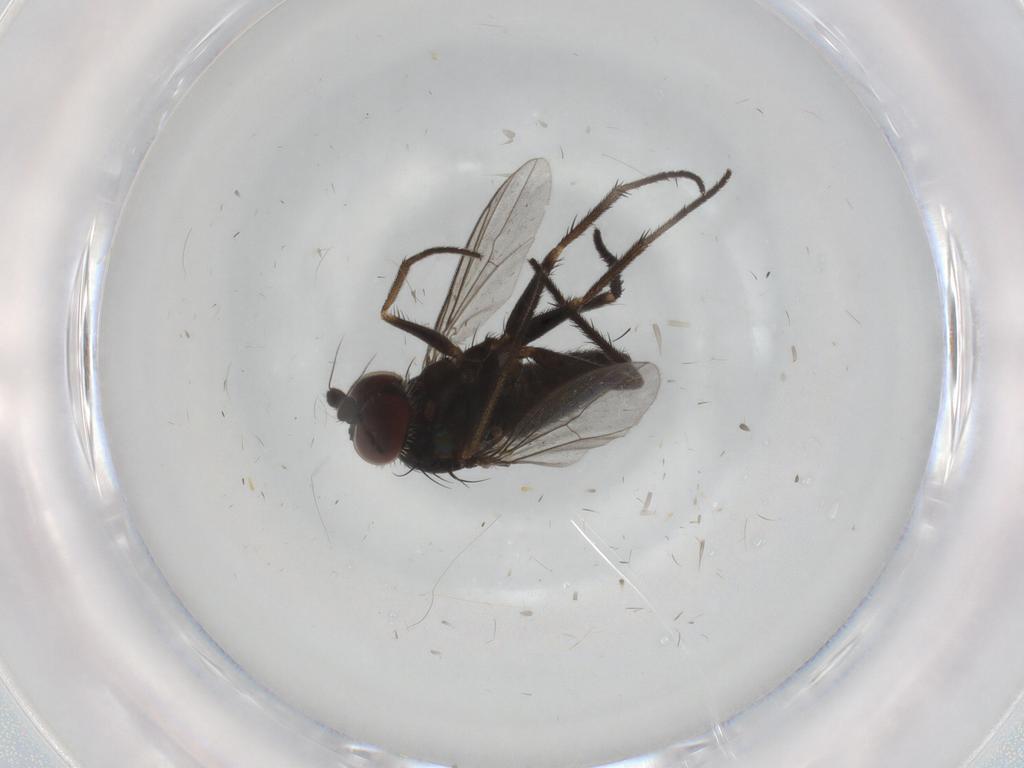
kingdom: Animalia
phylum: Arthropoda
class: Insecta
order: Diptera
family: Dolichopodidae
